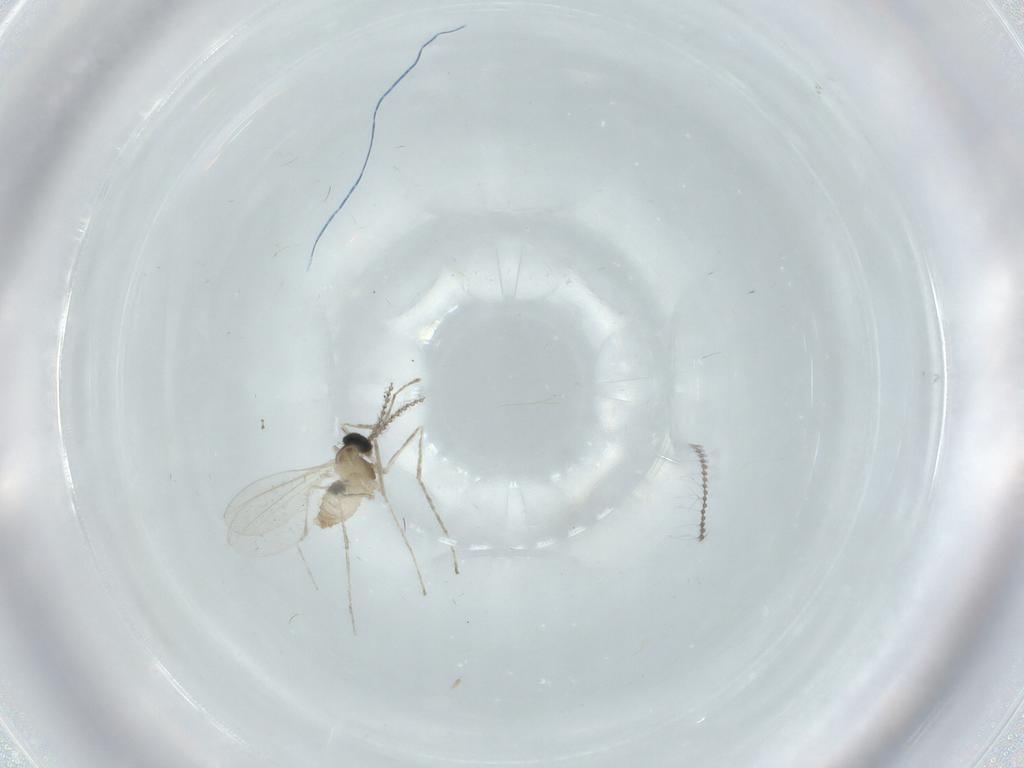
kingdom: Animalia
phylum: Arthropoda
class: Insecta
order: Diptera
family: Cecidomyiidae
